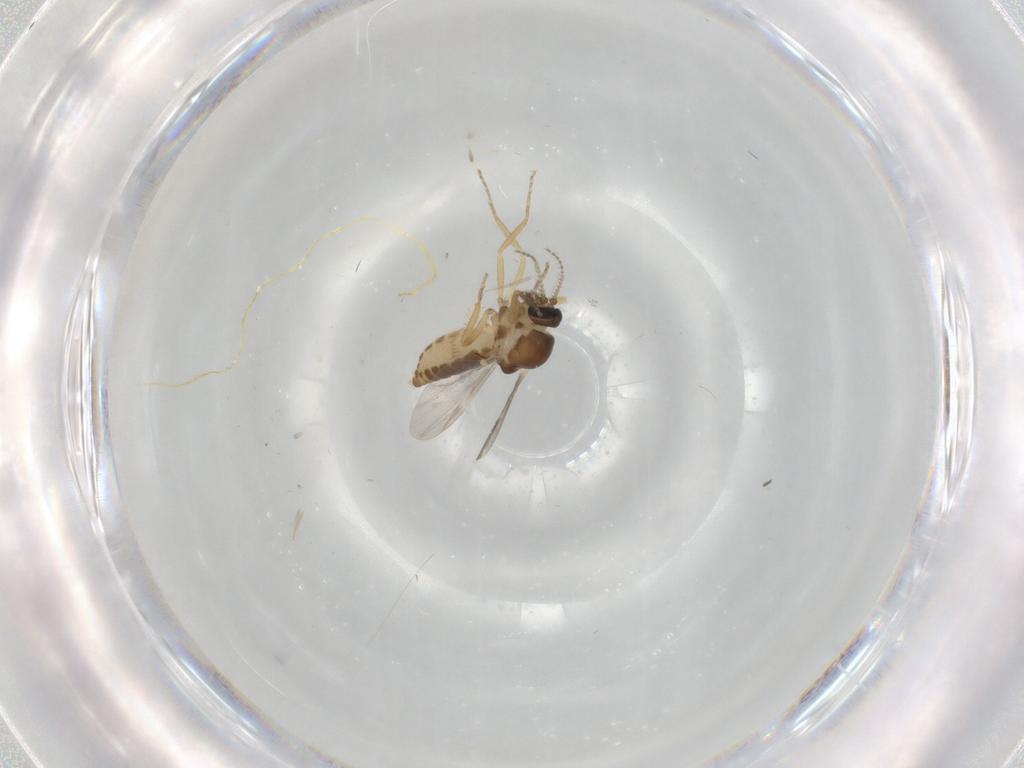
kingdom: Animalia
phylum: Arthropoda
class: Insecta
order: Diptera
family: Ceratopogonidae
